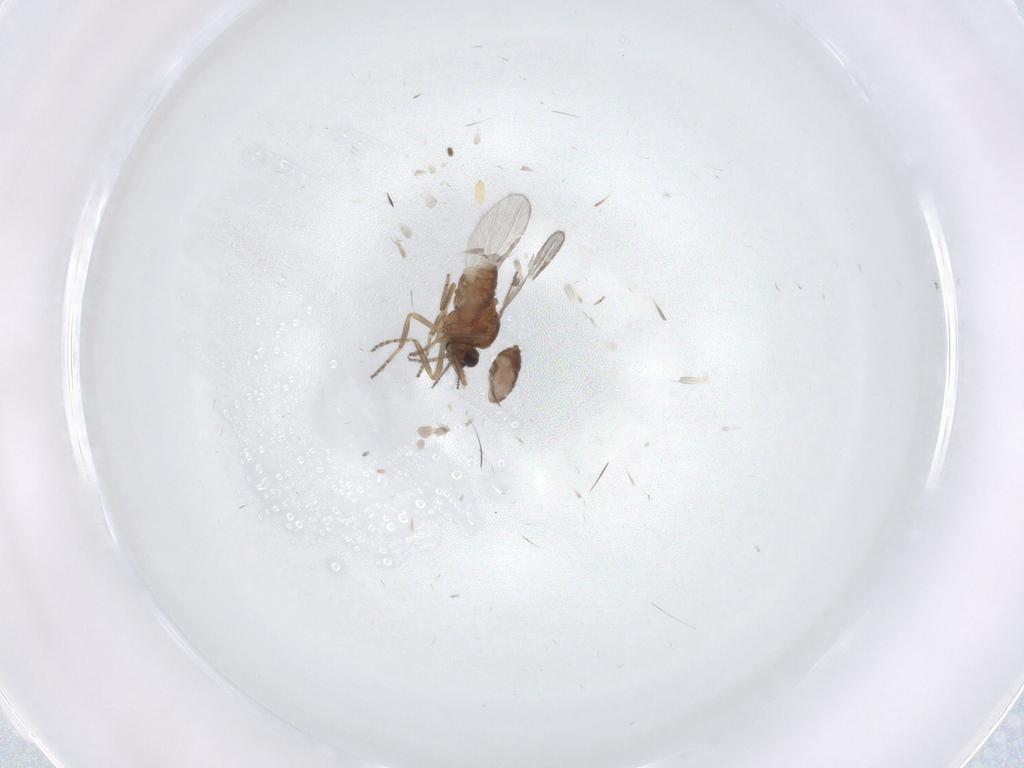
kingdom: Animalia
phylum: Arthropoda
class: Insecta
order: Diptera
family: Ceratopogonidae
